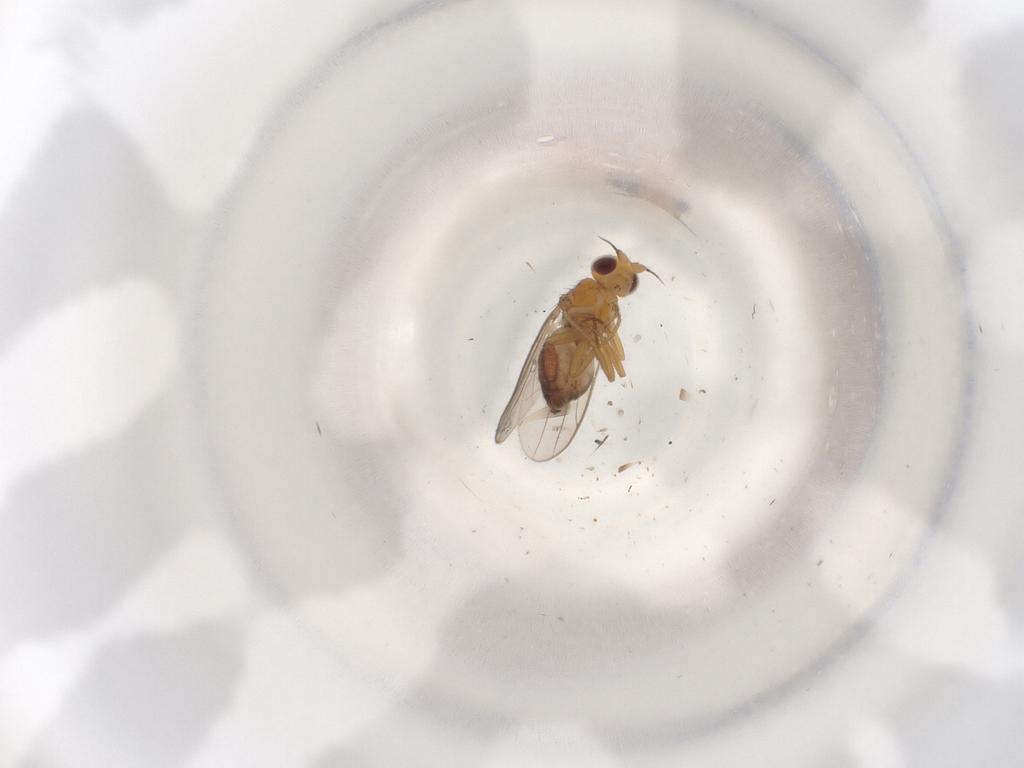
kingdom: Animalia
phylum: Arthropoda
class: Insecta
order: Diptera
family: Chloropidae
